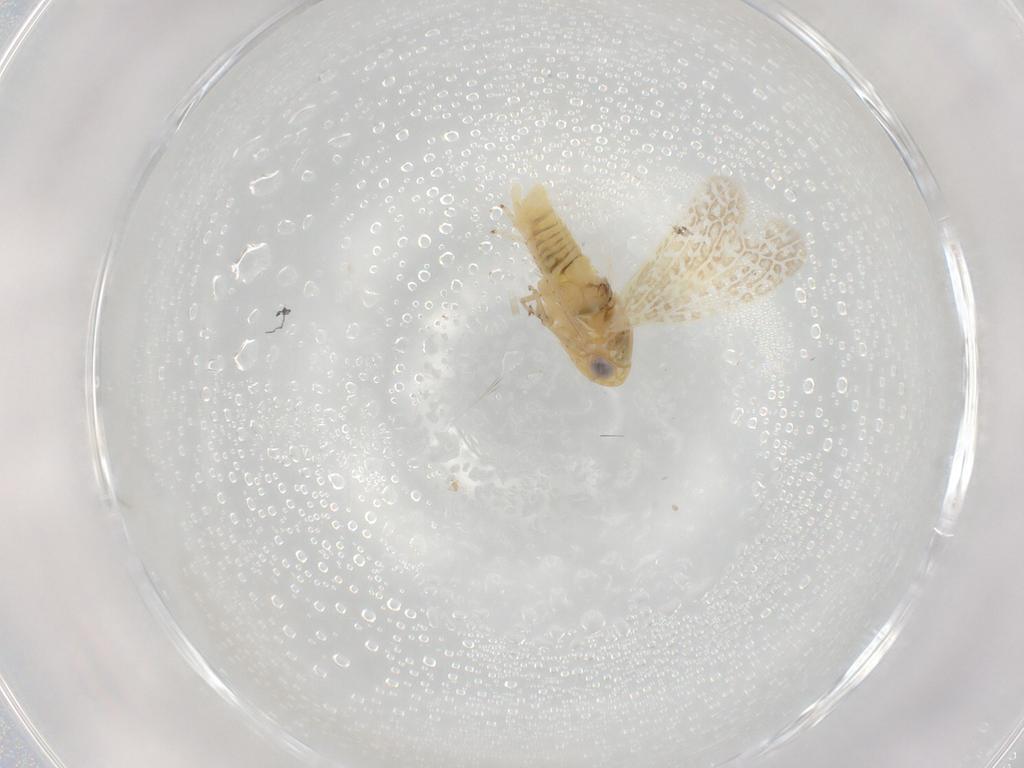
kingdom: Animalia
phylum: Arthropoda
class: Insecta
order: Hemiptera
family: Cicadellidae
